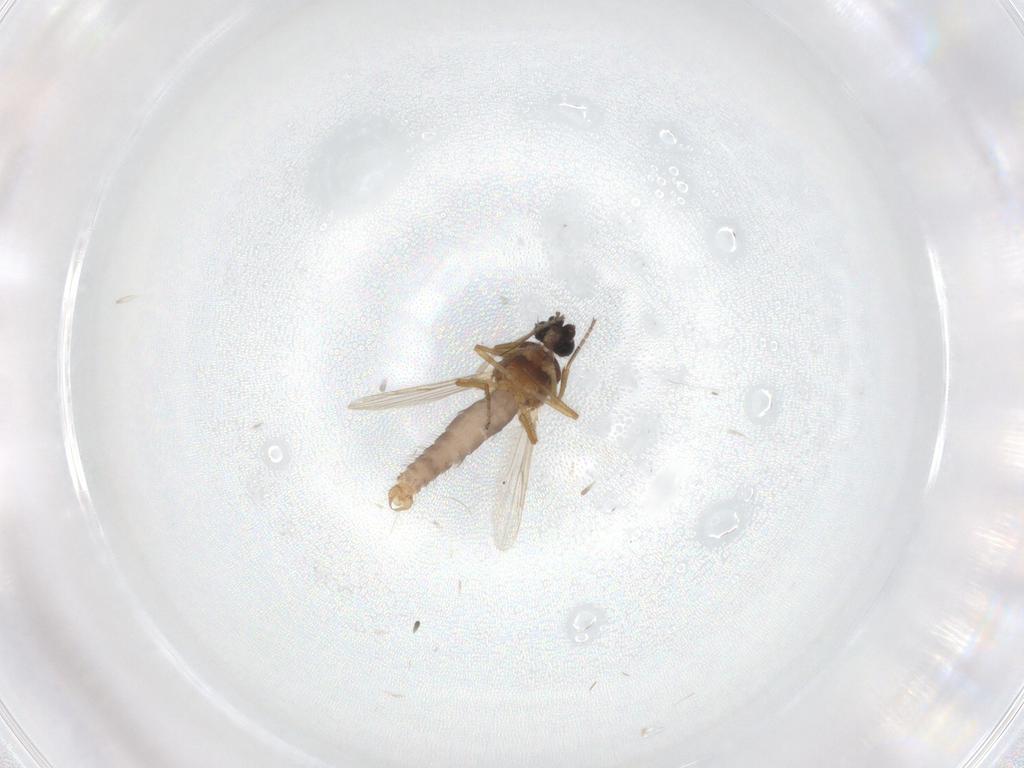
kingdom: Animalia
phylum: Arthropoda
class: Insecta
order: Diptera
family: Ceratopogonidae
